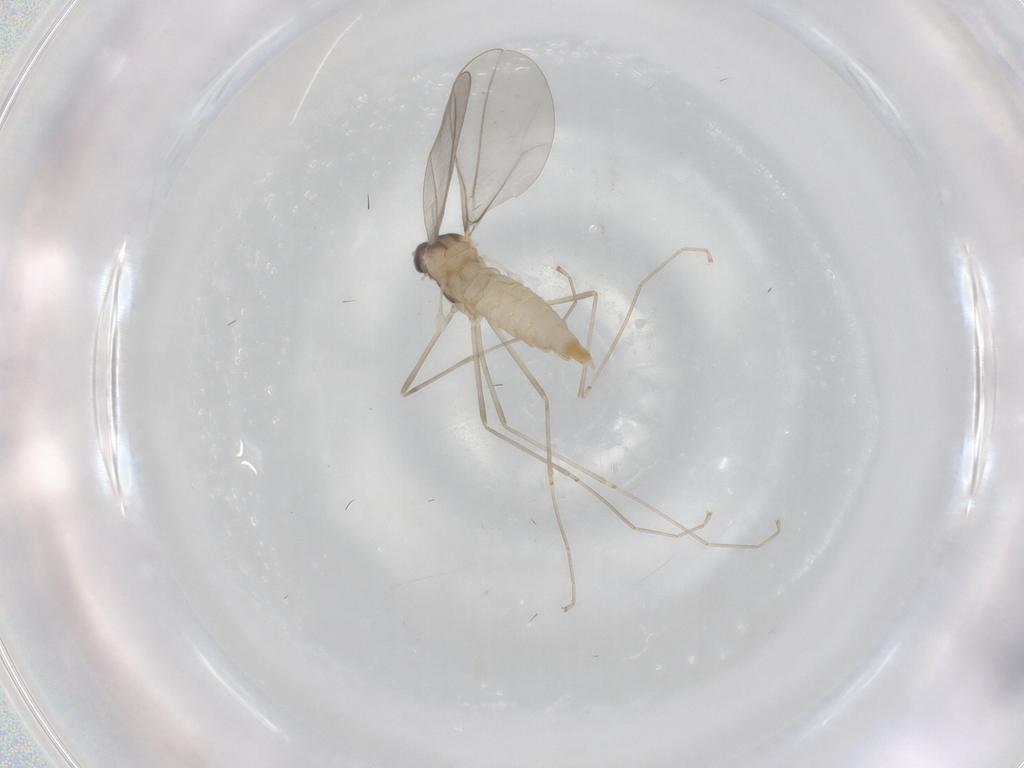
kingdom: Animalia
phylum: Arthropoda
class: Insecta
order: Diptera
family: Cecidomyiidae
